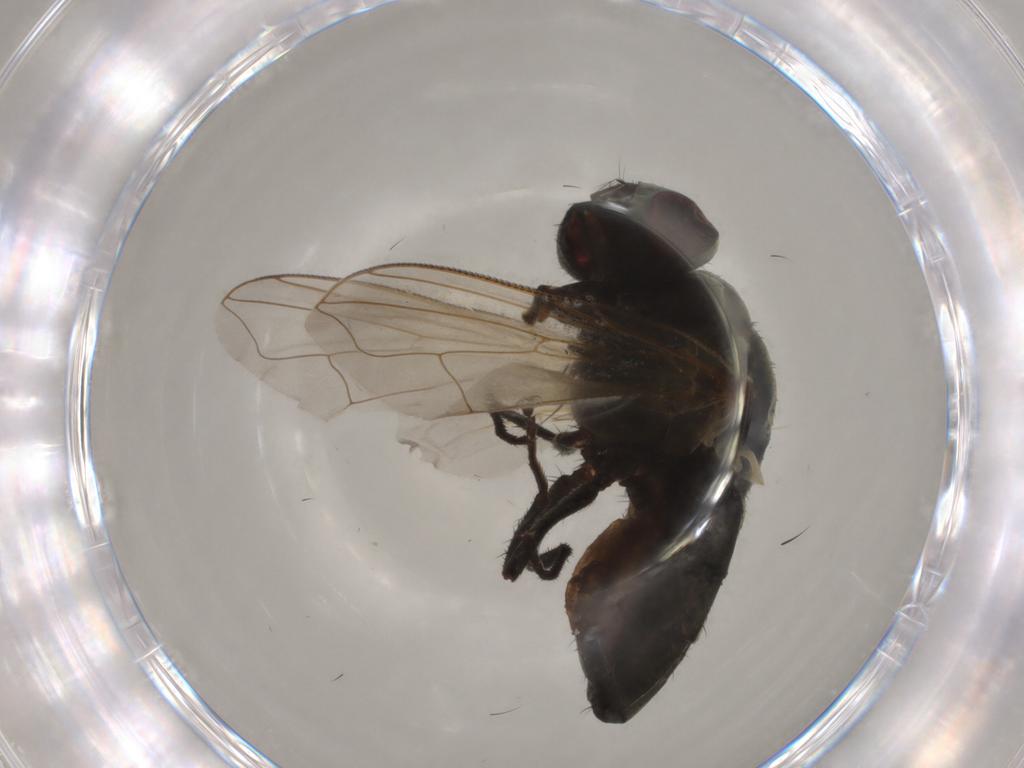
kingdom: Animalia
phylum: Arthropoda
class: Insecta
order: Diptera
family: Muscidae
